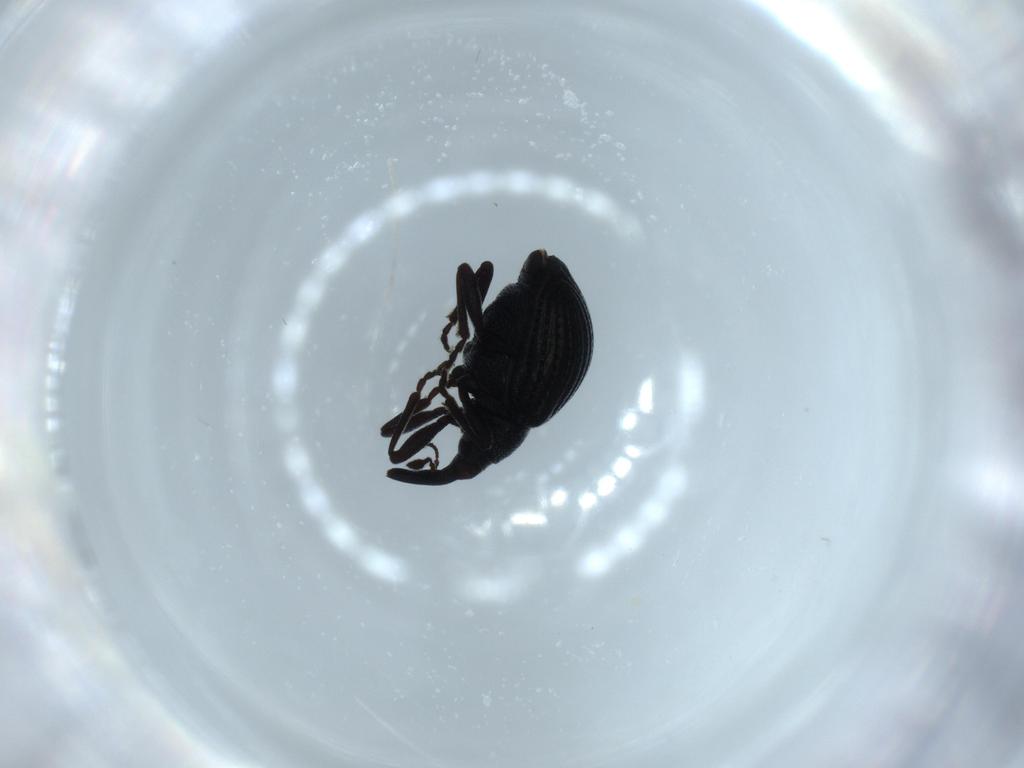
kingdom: Animalia
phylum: Arthropoda
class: Insecta
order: Coleoptera
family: Brentidae
